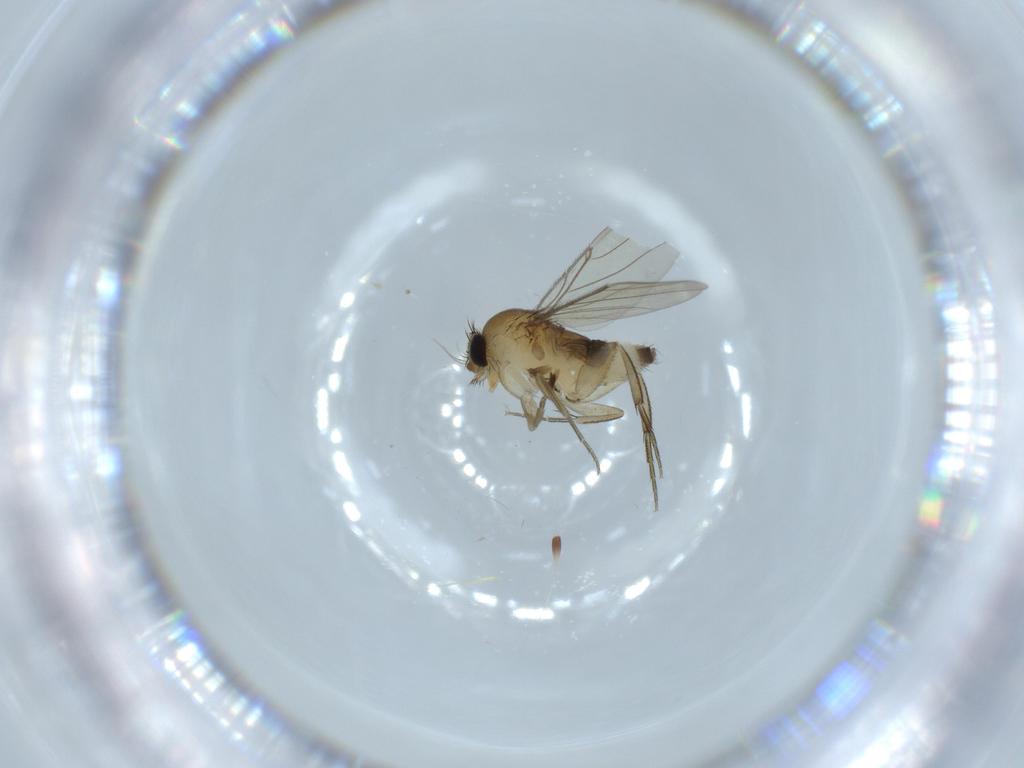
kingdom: Animalia
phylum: Arthropoda
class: Insecta
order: Diptera
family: Phoridae
